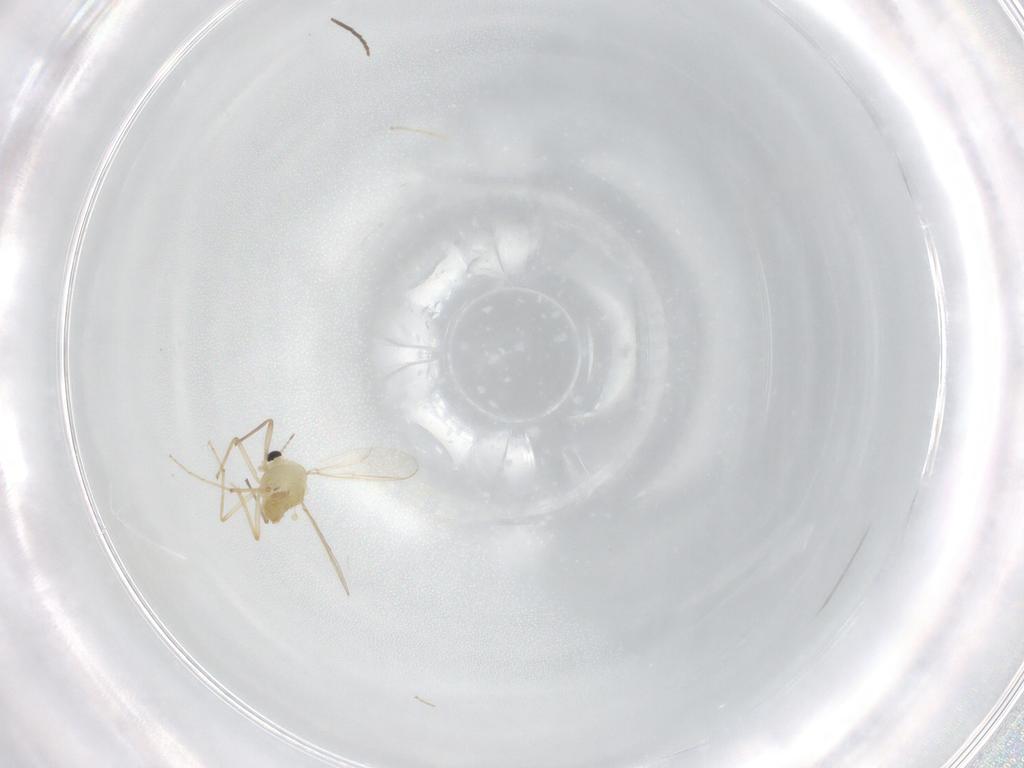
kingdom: Animalia
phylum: Arthropoda
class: Insecta
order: Diptera
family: Chironomidae
